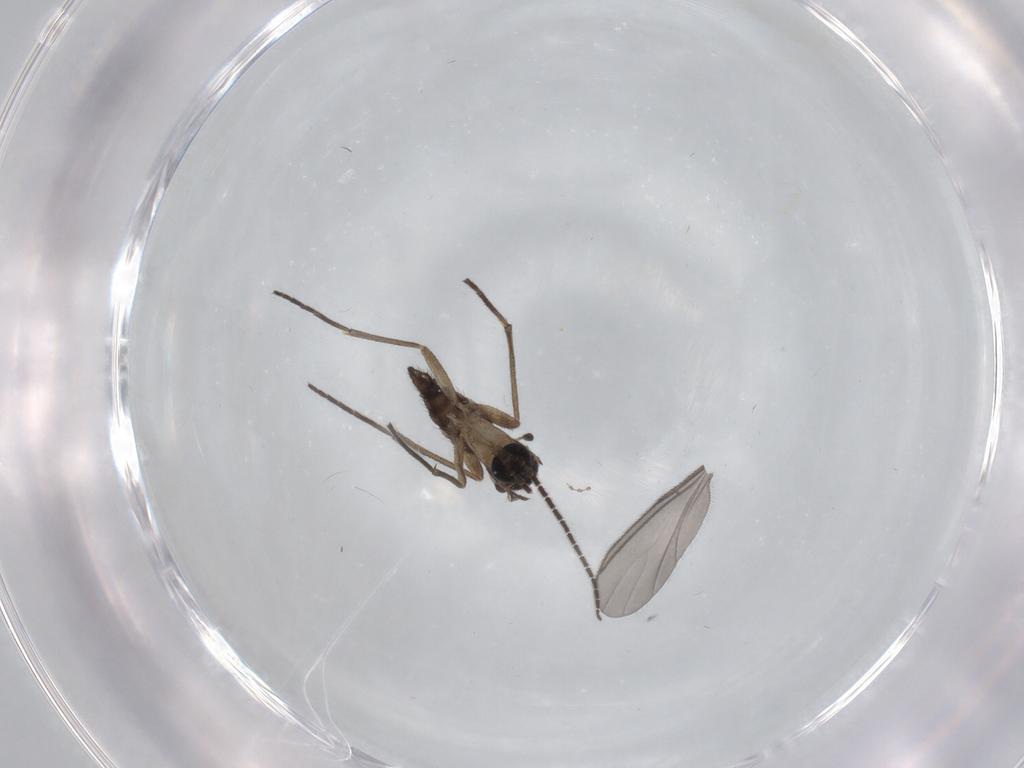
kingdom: Animalia
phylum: Arthropoda
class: Insecta
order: Diptera
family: Sciaridae
